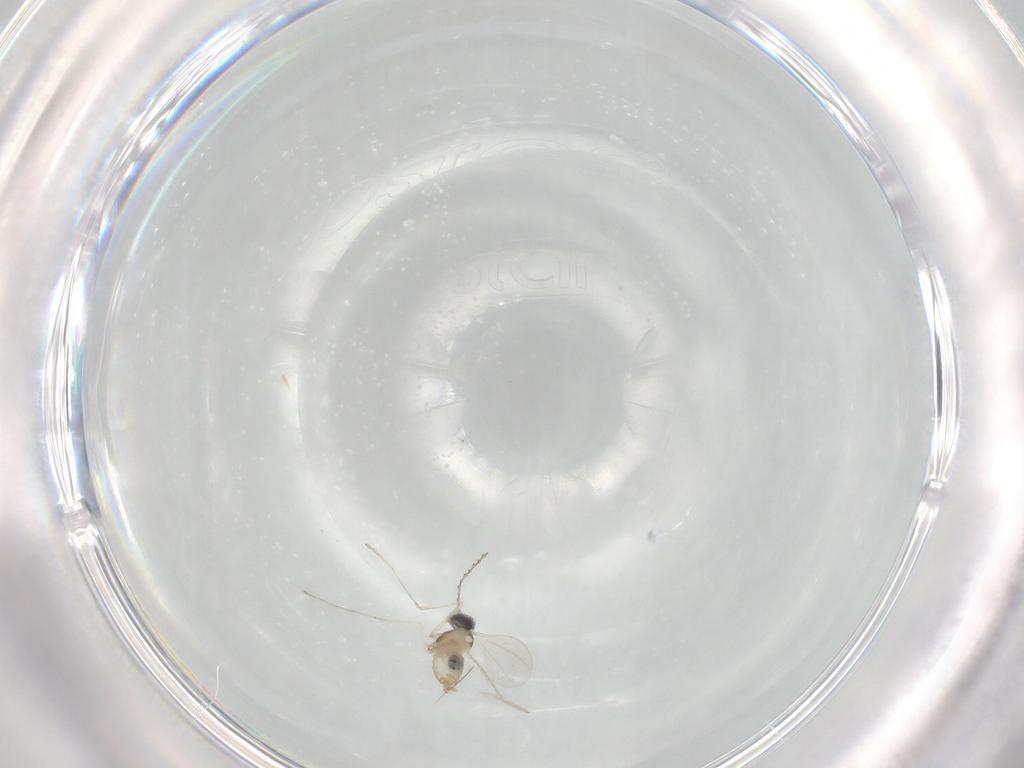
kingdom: Animalia
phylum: Arthropoda
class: Insecta
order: Diptera
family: Cecidomyiidae
